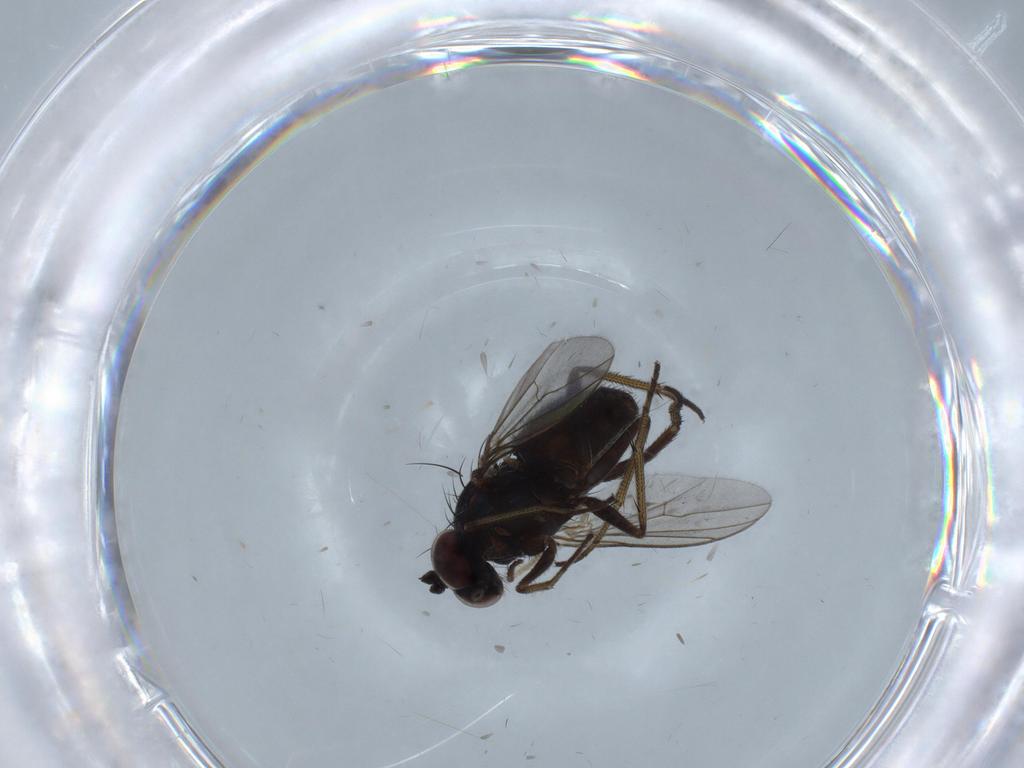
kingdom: Animalia
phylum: Arthropoda
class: Insecta
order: Diptera
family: Dolichopodidae
